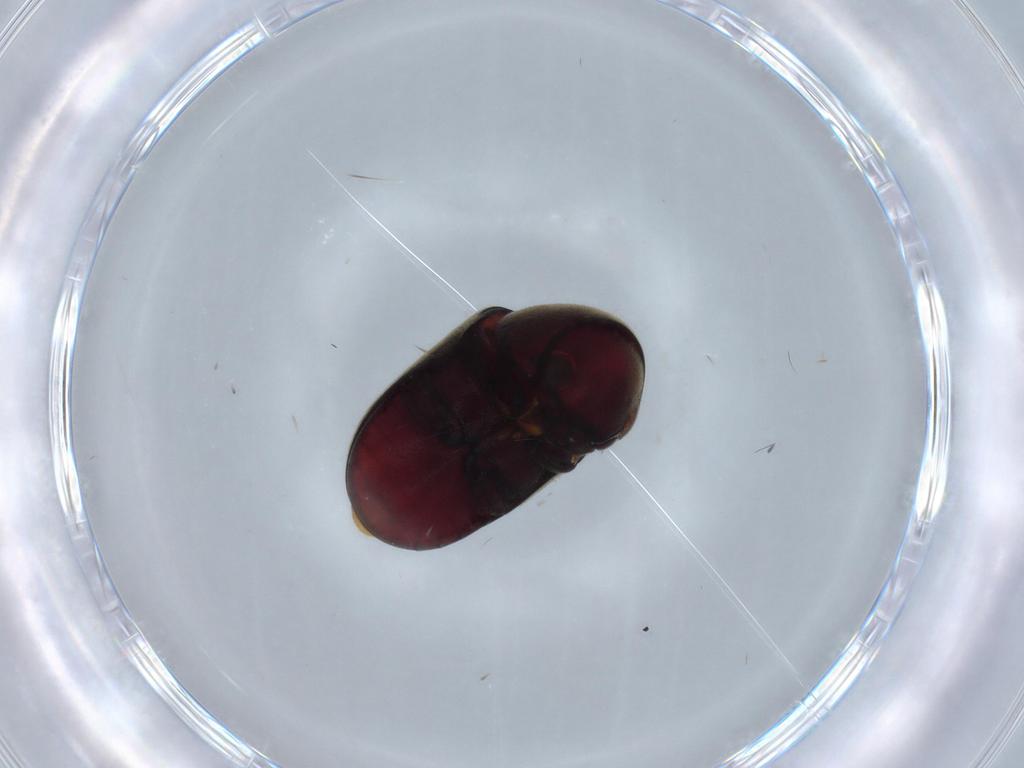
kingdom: Animalia
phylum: Arthropoda
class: Insecta
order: Coleoptera
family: Ptinidae
